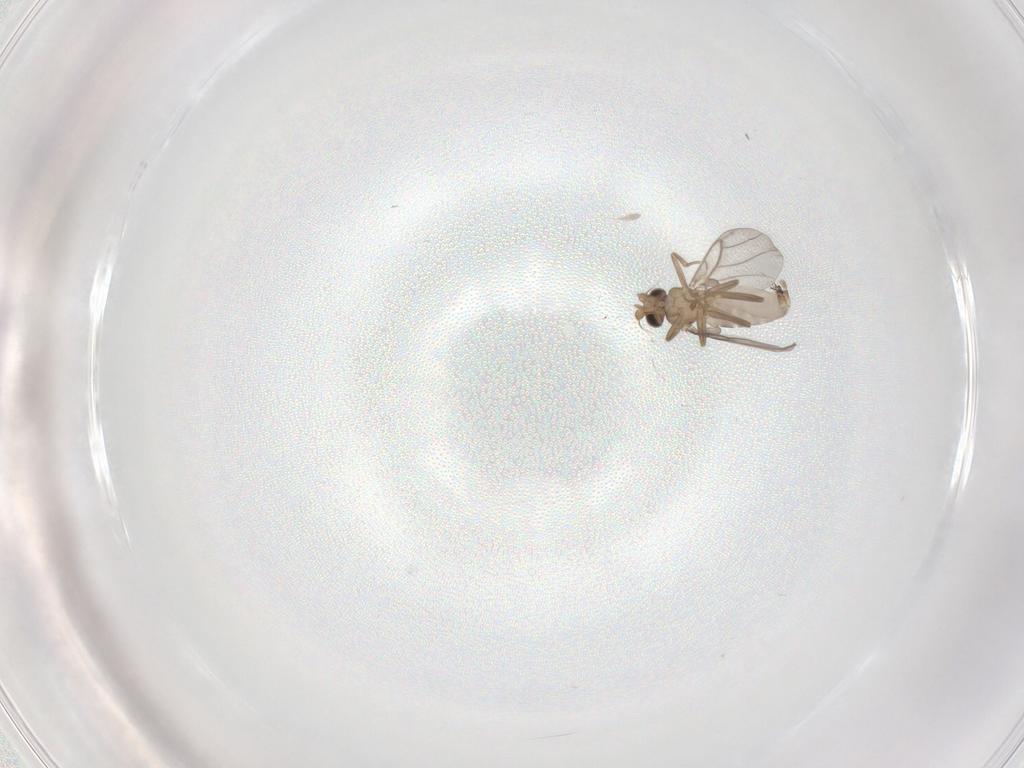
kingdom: Animalia
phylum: Arthropoda
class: Insecta
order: Diptera
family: Cecidomyiidae
